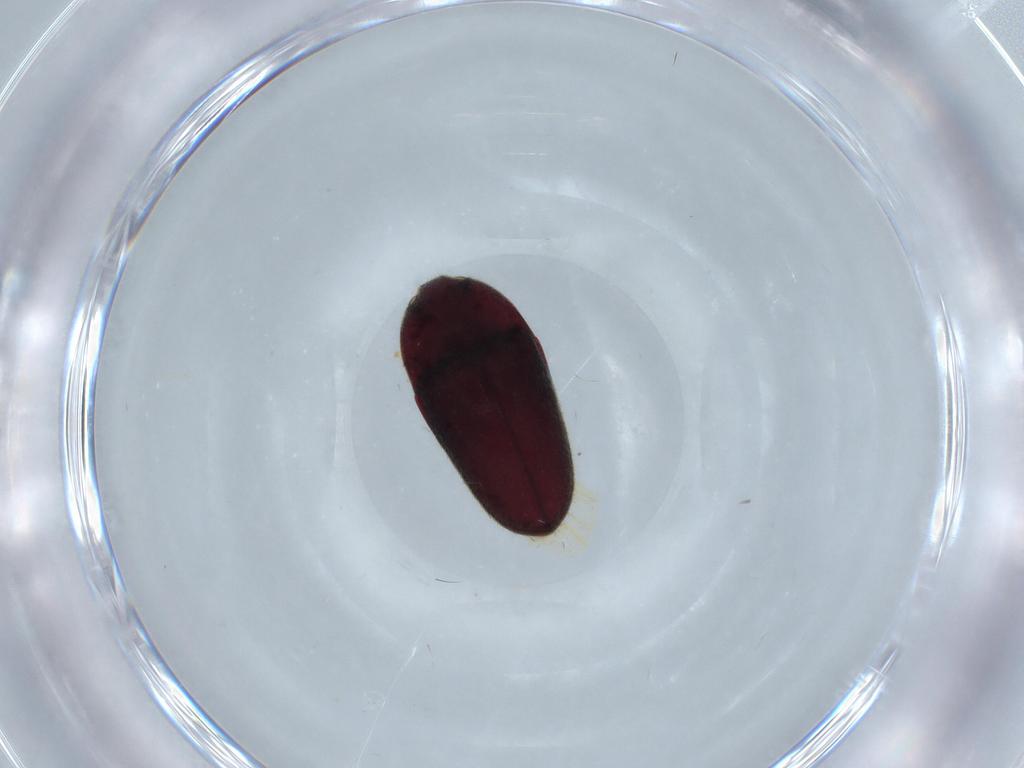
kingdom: Animalia
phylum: Arthropoda
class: Insecta
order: Coleoptera
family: Throscidae
